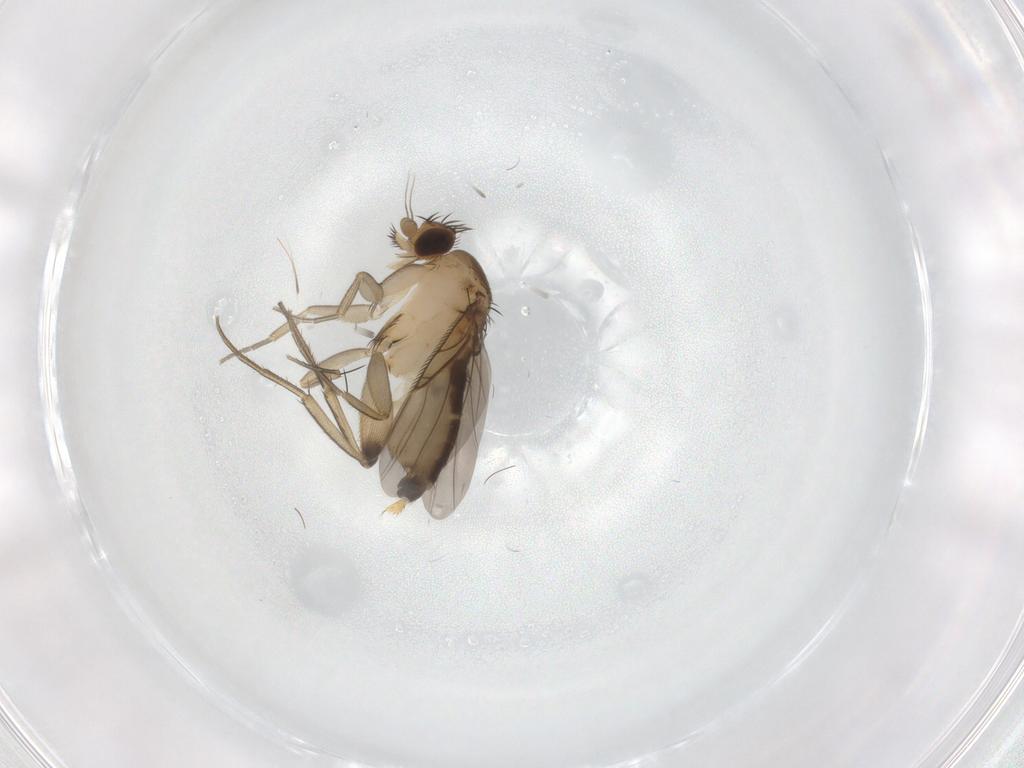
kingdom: Animalia
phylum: Arthropoda
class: Insecta
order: Diptera
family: Phoridae
